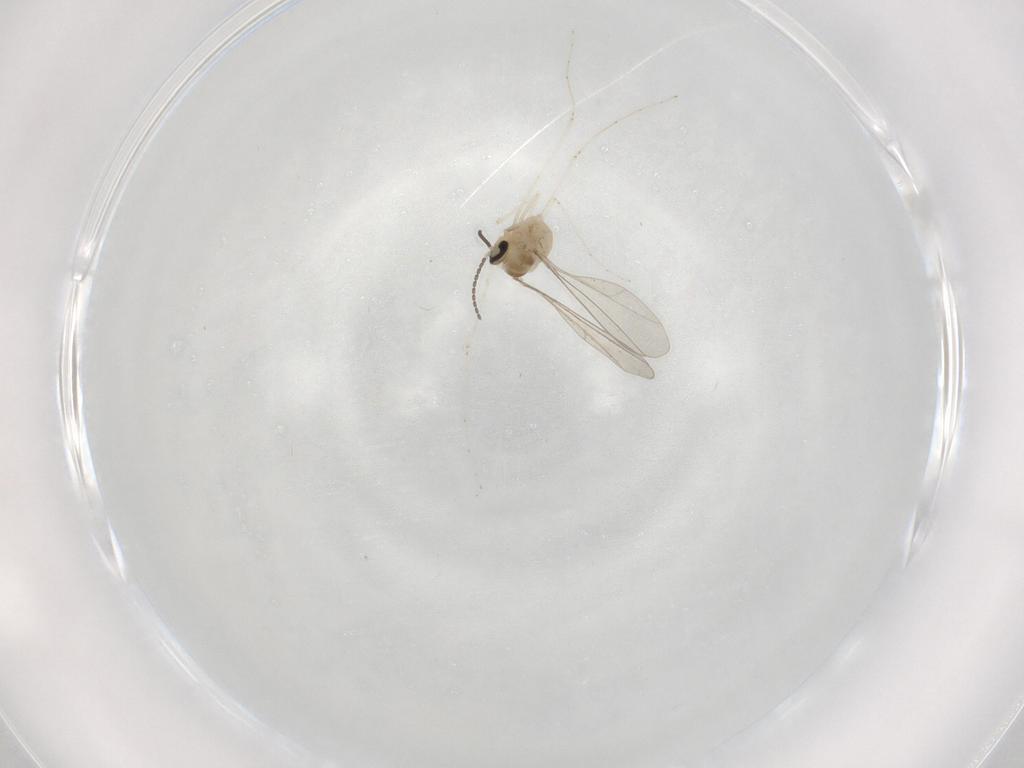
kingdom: Animalia
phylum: Arthropoda
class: Insecta
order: Diptera
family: Cecidomyiidae
